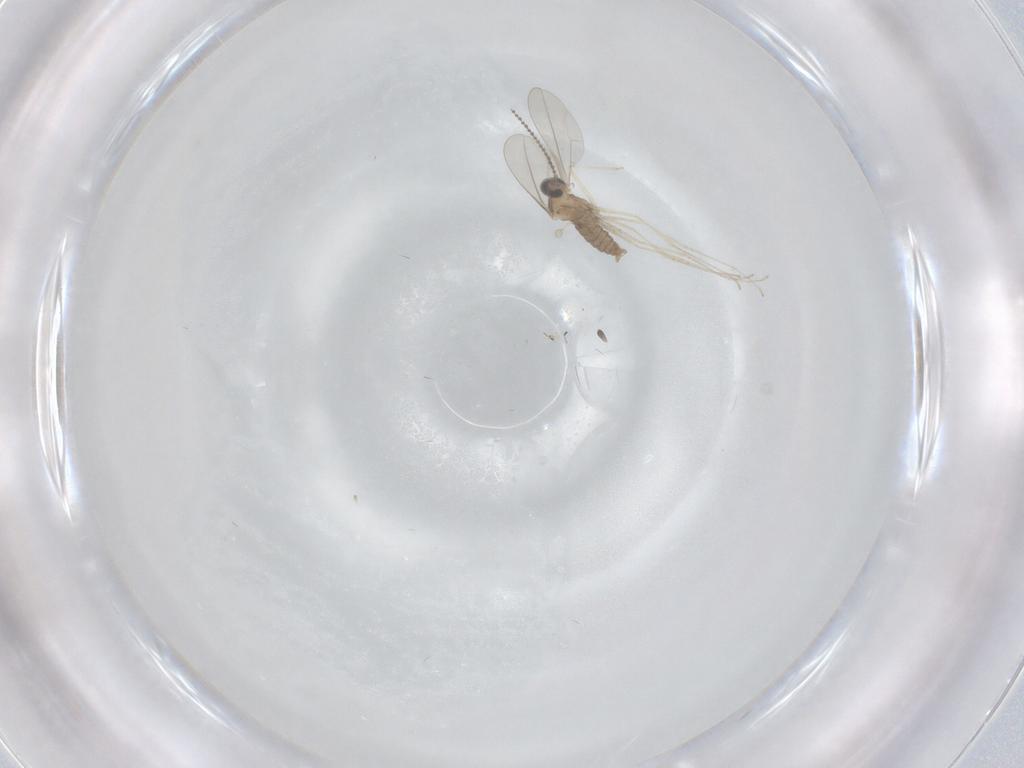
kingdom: Animalia
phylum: Arthropoda
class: Insecta
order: Diptera
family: Cecidomyiidae
